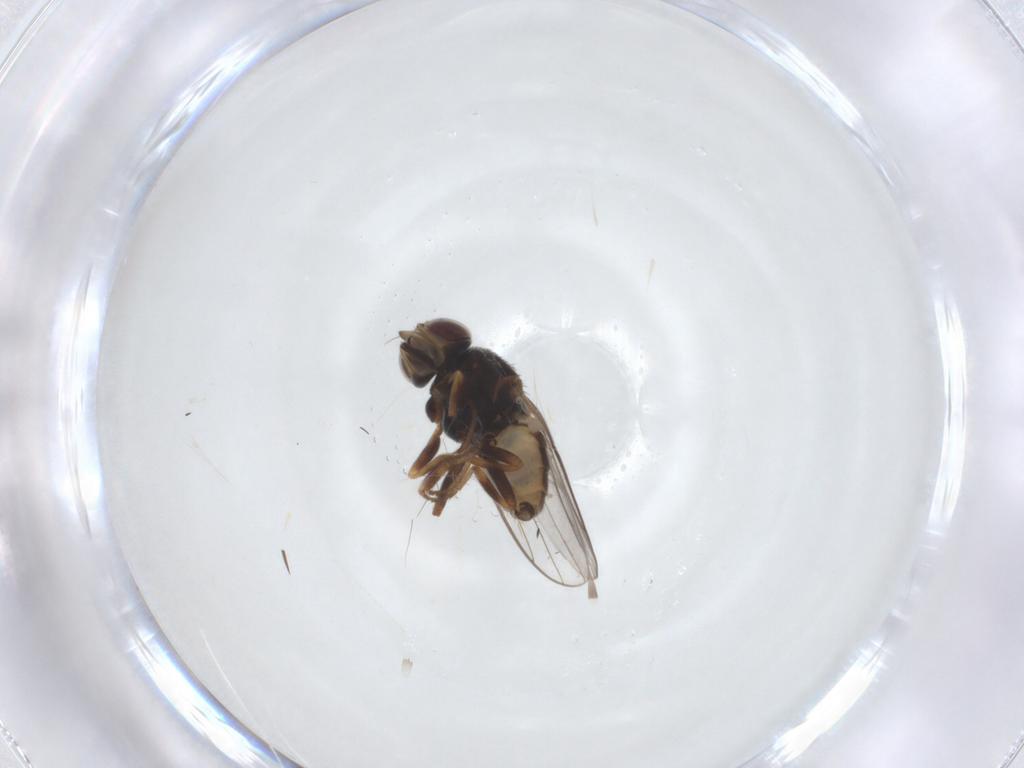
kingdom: Animalia
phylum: Arthropoda
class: Insecta
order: Diptera
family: Chloropidae
